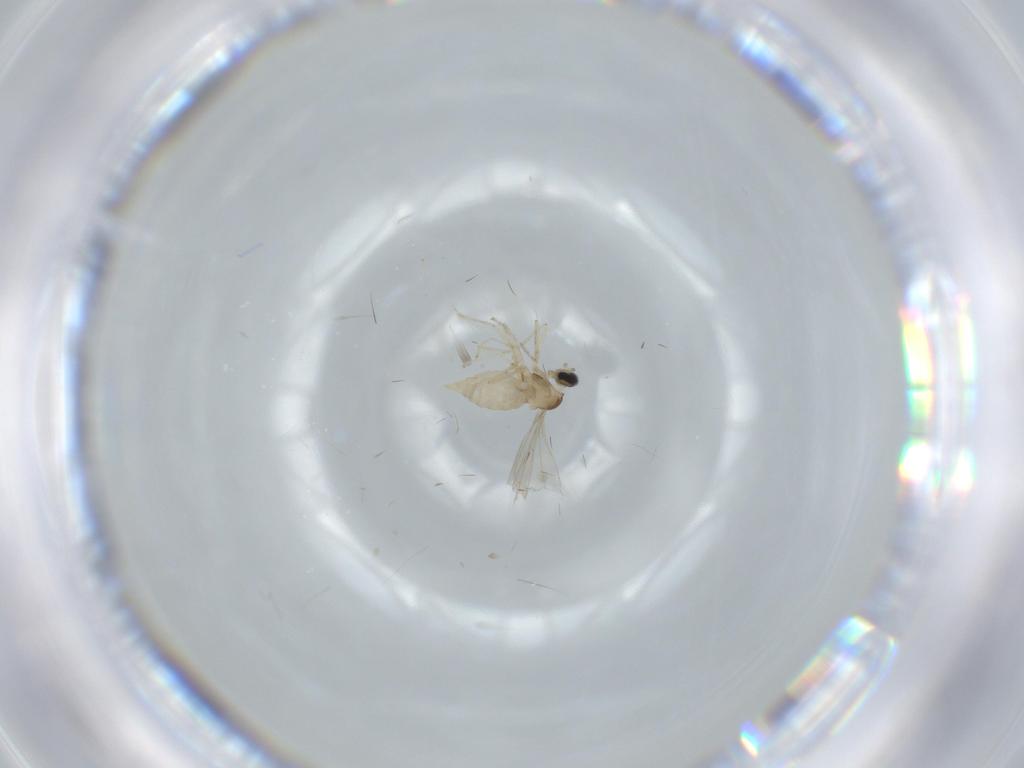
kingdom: Animalia
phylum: Arthropoda
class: Insecta
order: Diptera
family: Cecidomyiidae
